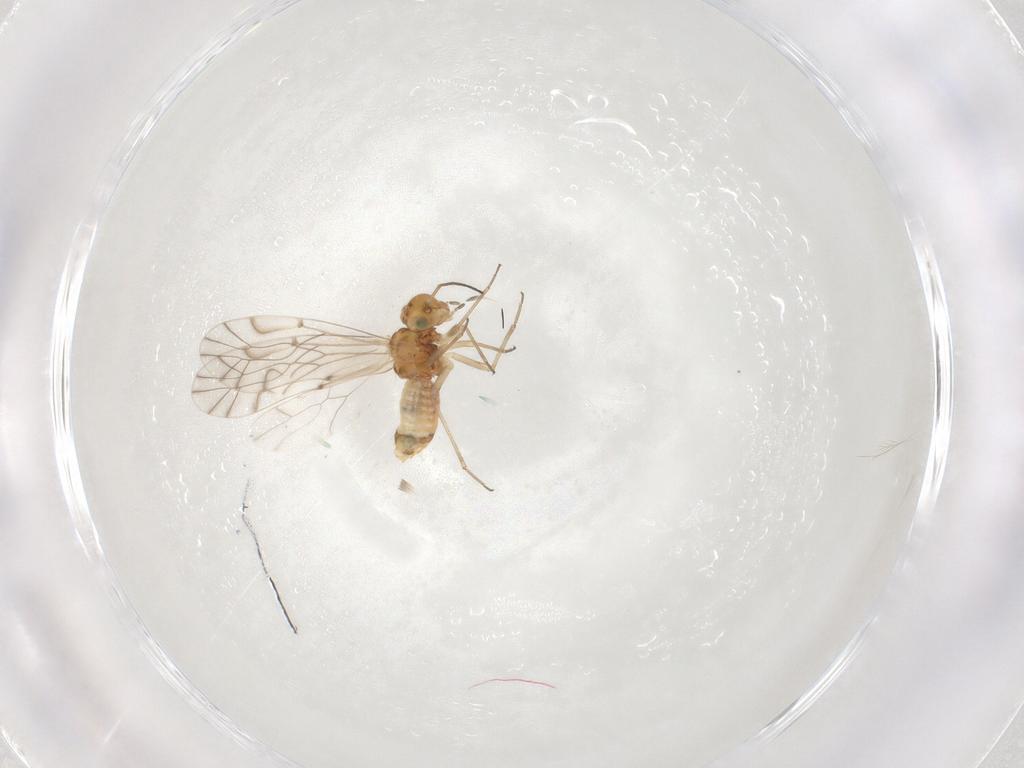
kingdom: Animalia
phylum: Arthropoda
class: Insecta
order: Psocodea
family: Lachesillidae
